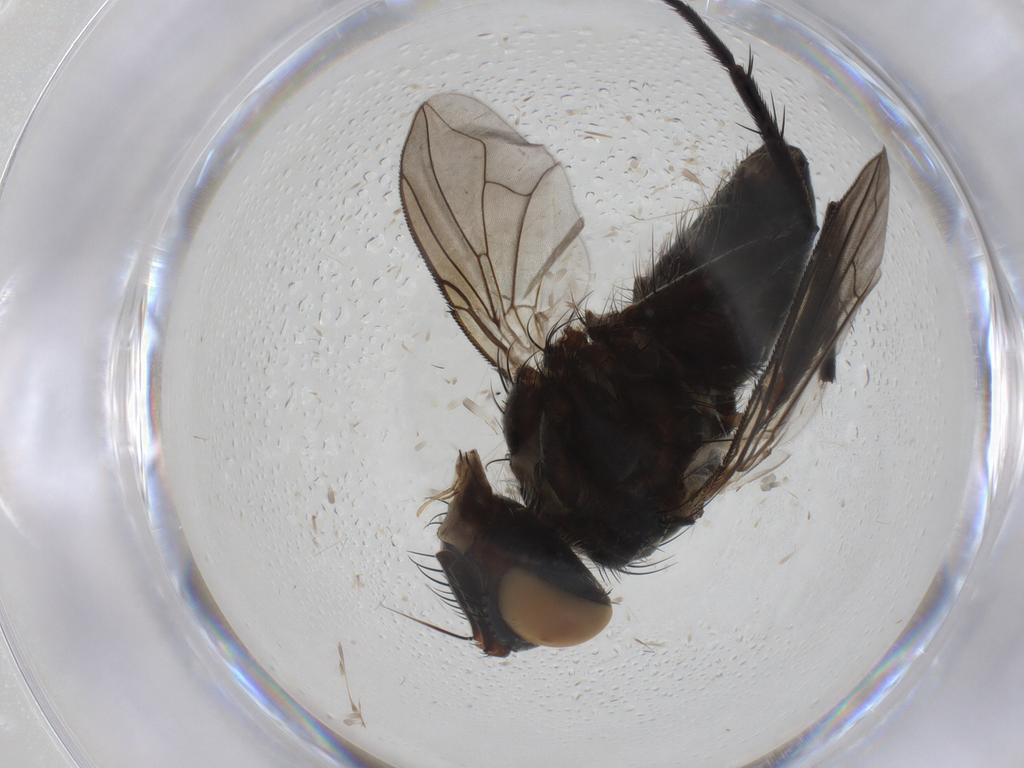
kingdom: Animalia
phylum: Arthropoda
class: Insecta
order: Diptera
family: Tachinidae
